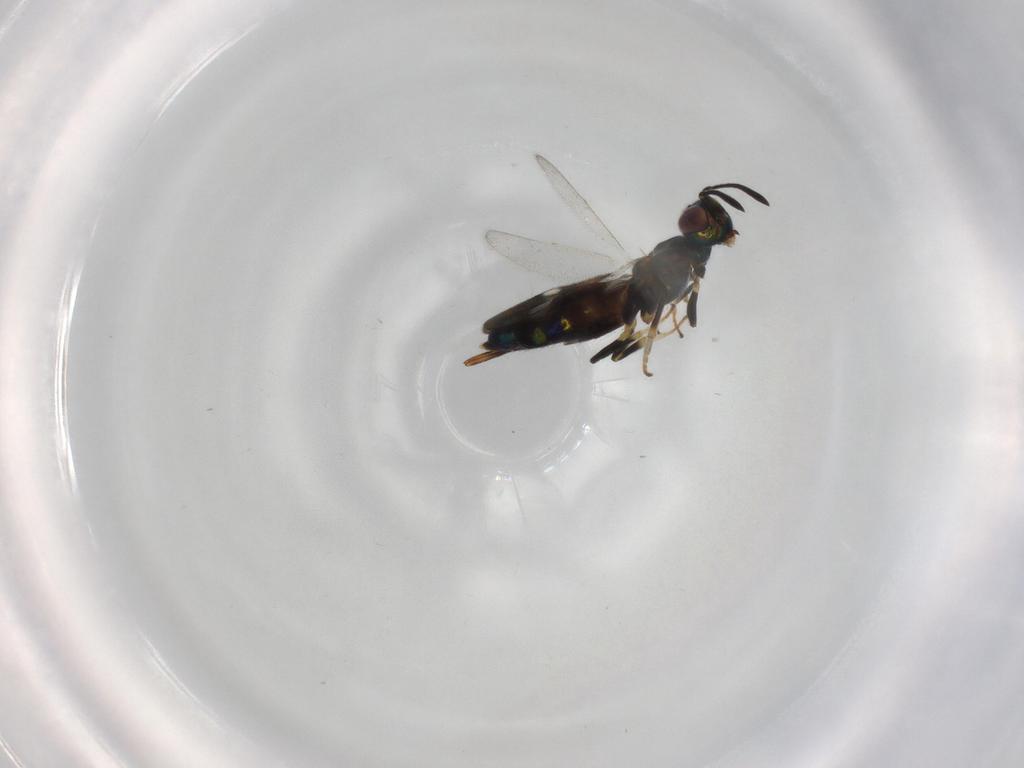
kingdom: Animalia
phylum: Arthropoda
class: Insecta
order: Hymenoptera
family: Eupelmidae
